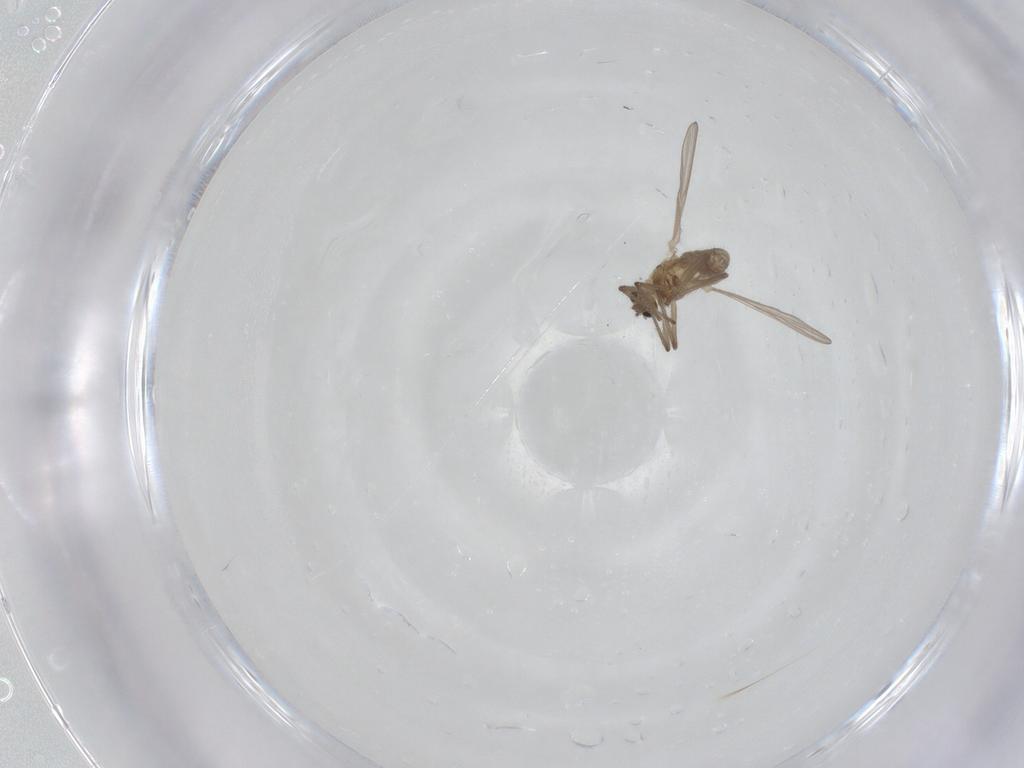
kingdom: Animalia
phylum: Arthropoda
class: Insecta
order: Diptera
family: Chironomidae
